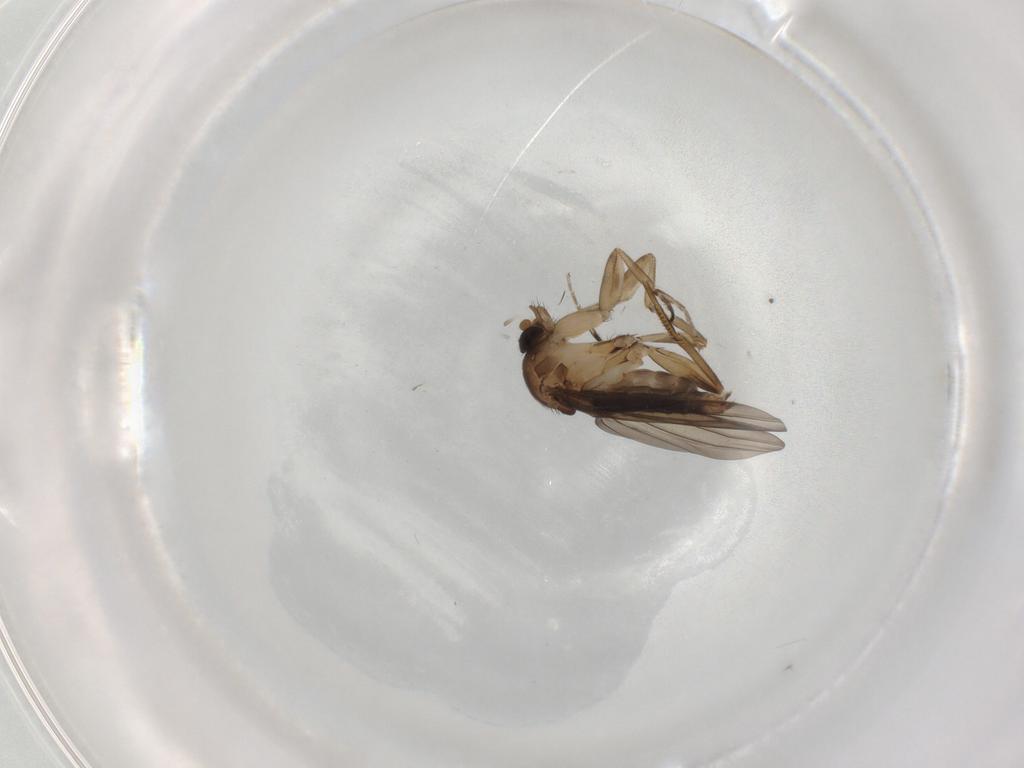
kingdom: Animalia
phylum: Arthropoda
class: Insecta
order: Diptera
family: Phoridae
